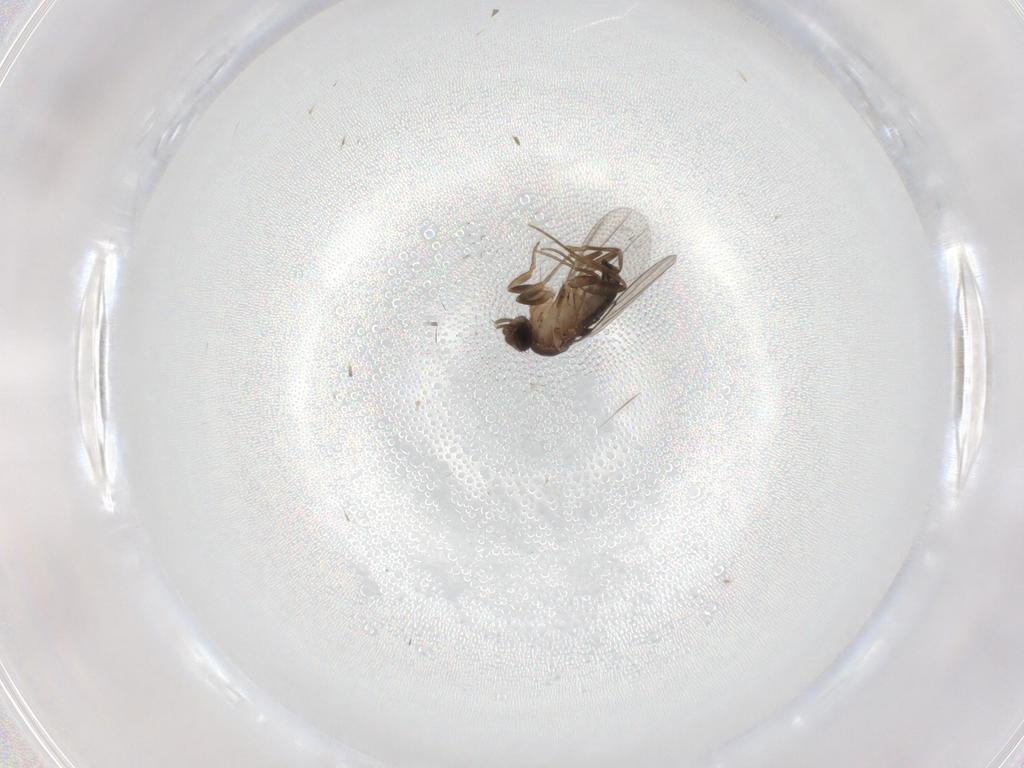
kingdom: Animalia
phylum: Arthropoda
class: Insecta
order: Diptera
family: Phoridae
